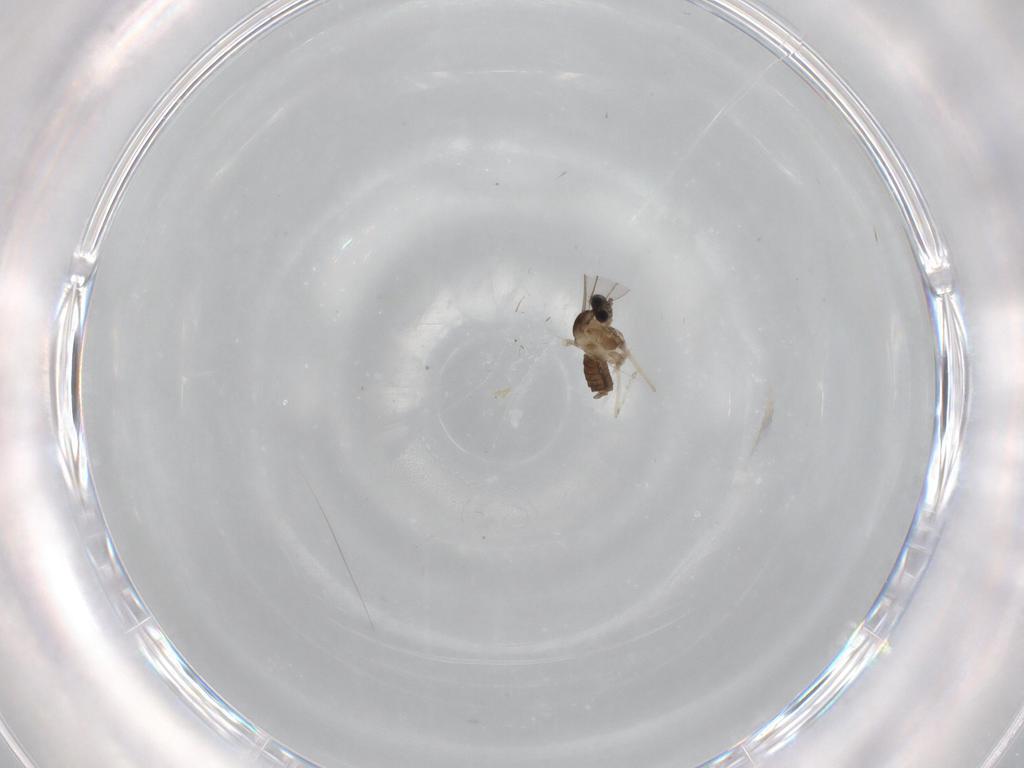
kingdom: Animalia
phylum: Arthropoda
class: Insecta
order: Diptera
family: Cecidomyiidae
